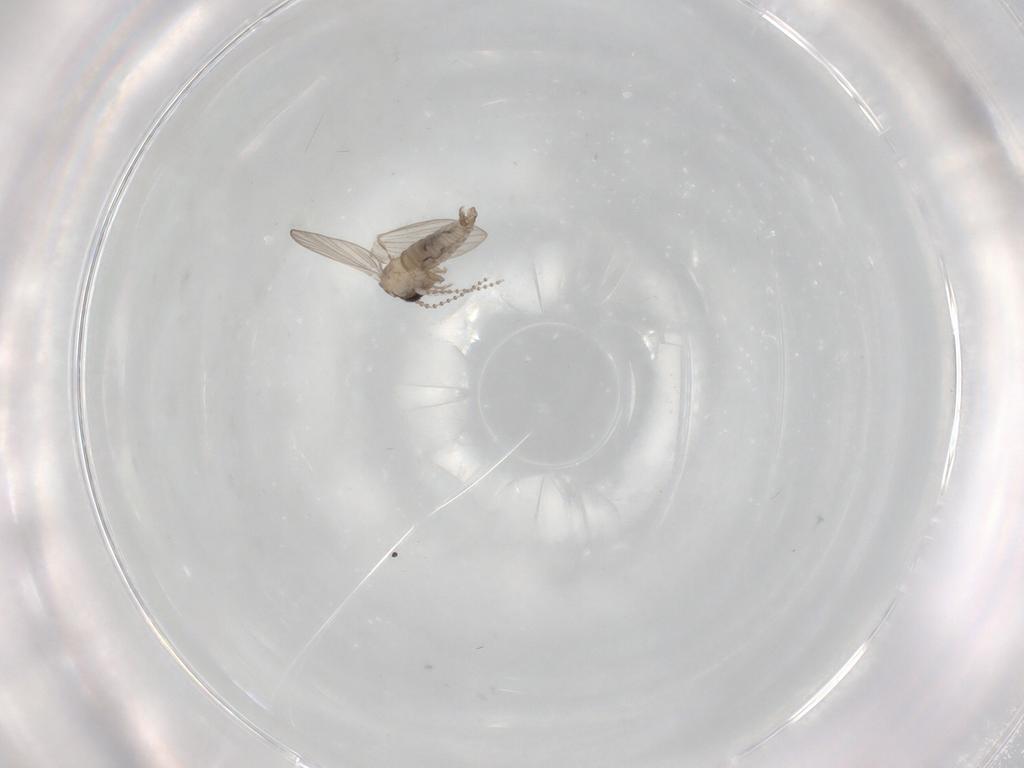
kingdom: Animalia
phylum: Arthropoda
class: Insecta
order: Diptera
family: Psychodidae
